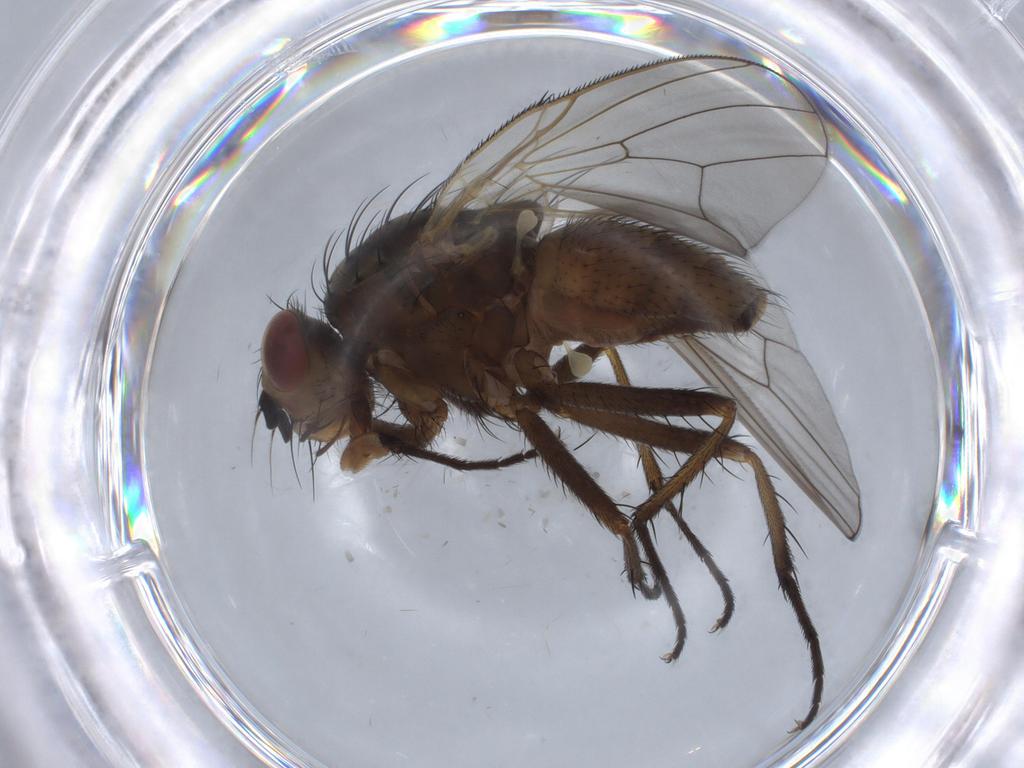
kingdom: Animalia
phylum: Arthropoda
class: Insecta
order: Diptera
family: Anthomyiidae
